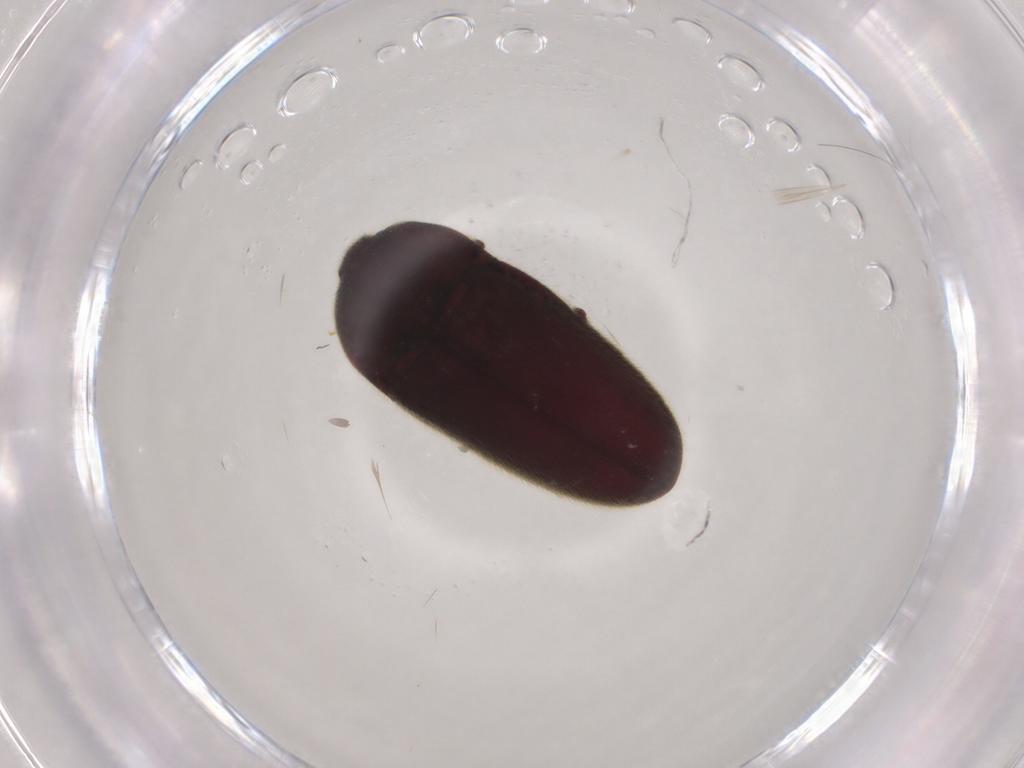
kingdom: Animalia
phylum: Arthropoda
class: Insecta
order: Coleoptera
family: Throscidae
